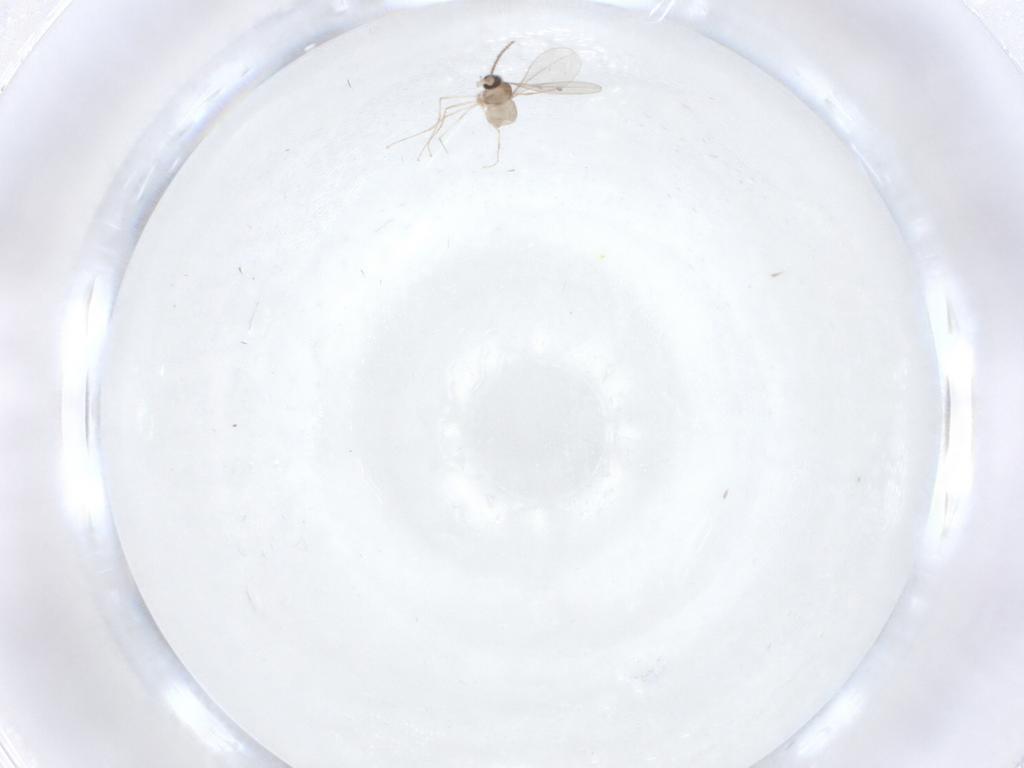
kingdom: Animalia
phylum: Arthropoda
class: Insecta
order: Diptera
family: Cecidomyiidae
